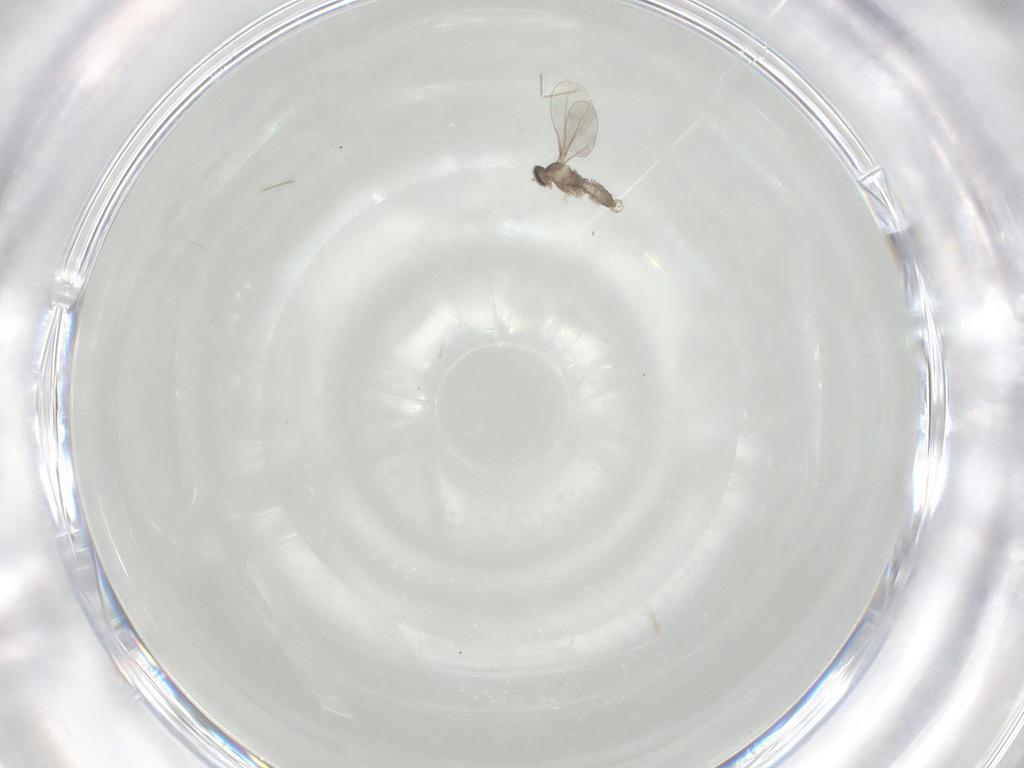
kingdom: Animalia
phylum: Arthropoda
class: Insecta
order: Diptera
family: Cecidomyiidae
